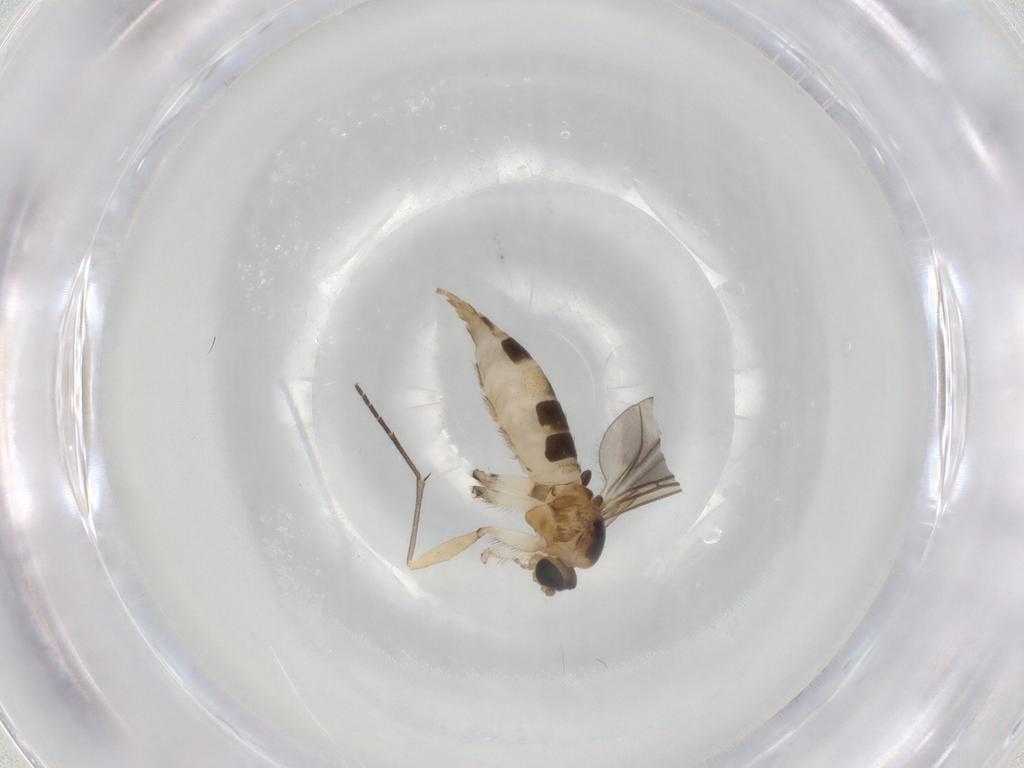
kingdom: Animalia
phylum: Arthropoda
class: Insecta
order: Diptera
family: Sciaridae
